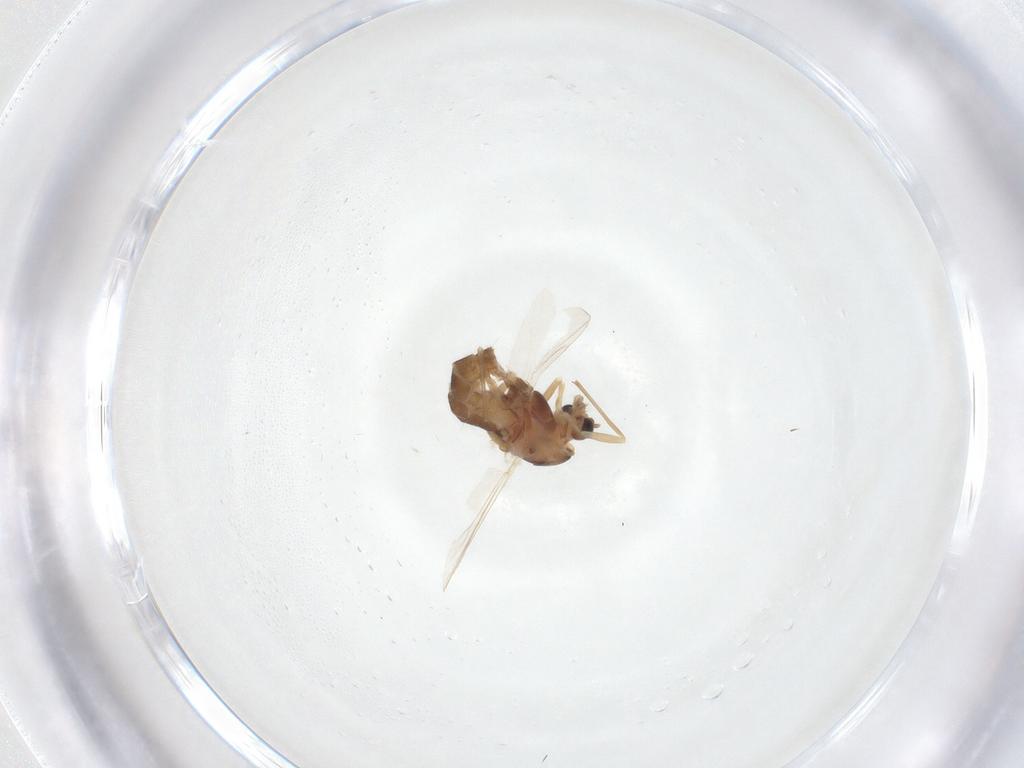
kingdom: Animalia
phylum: Arthropoda
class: Insecta
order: Diptera
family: Chironomidae
